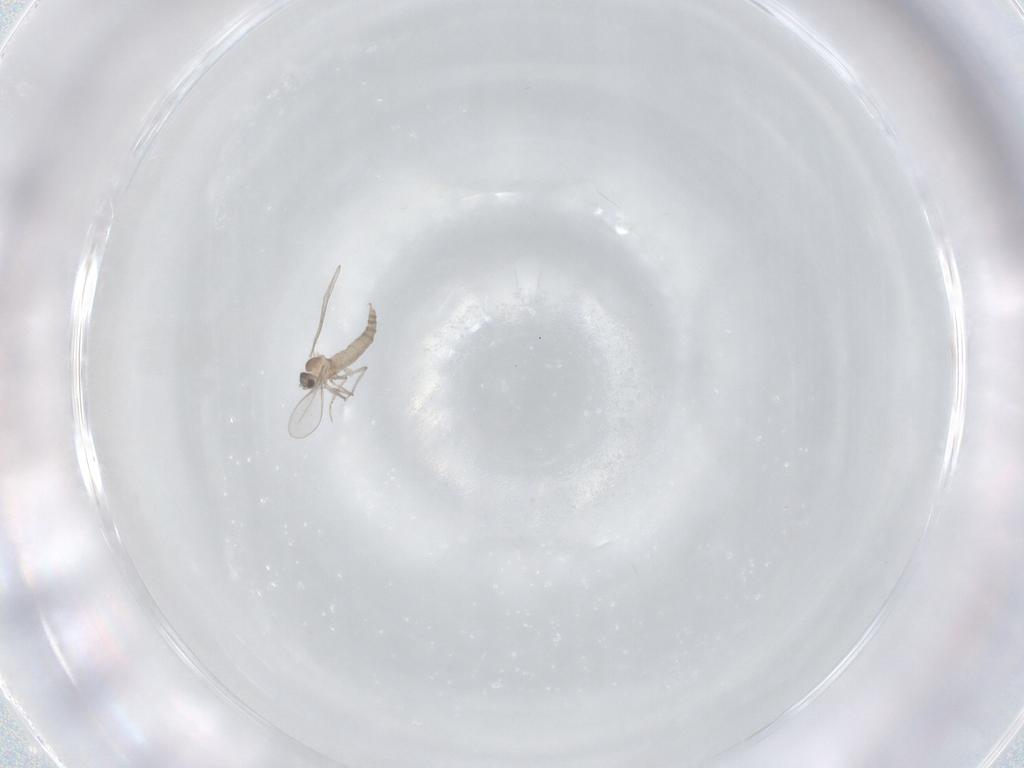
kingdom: Animalia
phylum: Arthropoda
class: Insecta
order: Diptera
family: Cecidomyiidae
